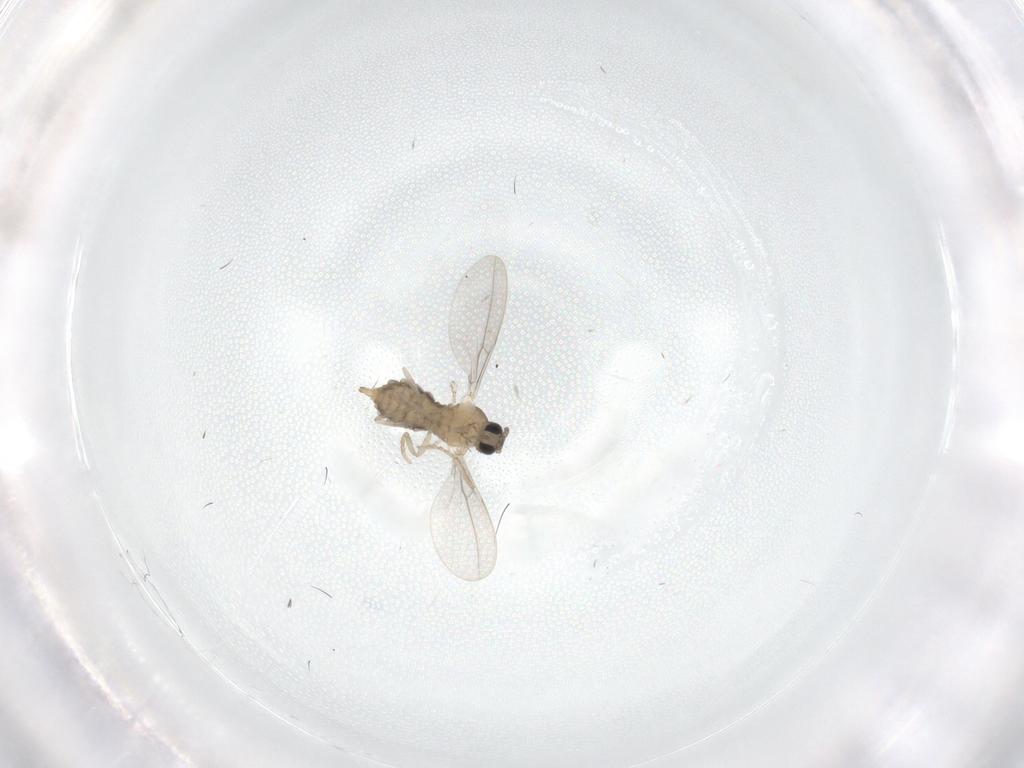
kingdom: Animalia
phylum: Arthropoda
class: Insecta
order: Diptera
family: Cecidomyiidae
